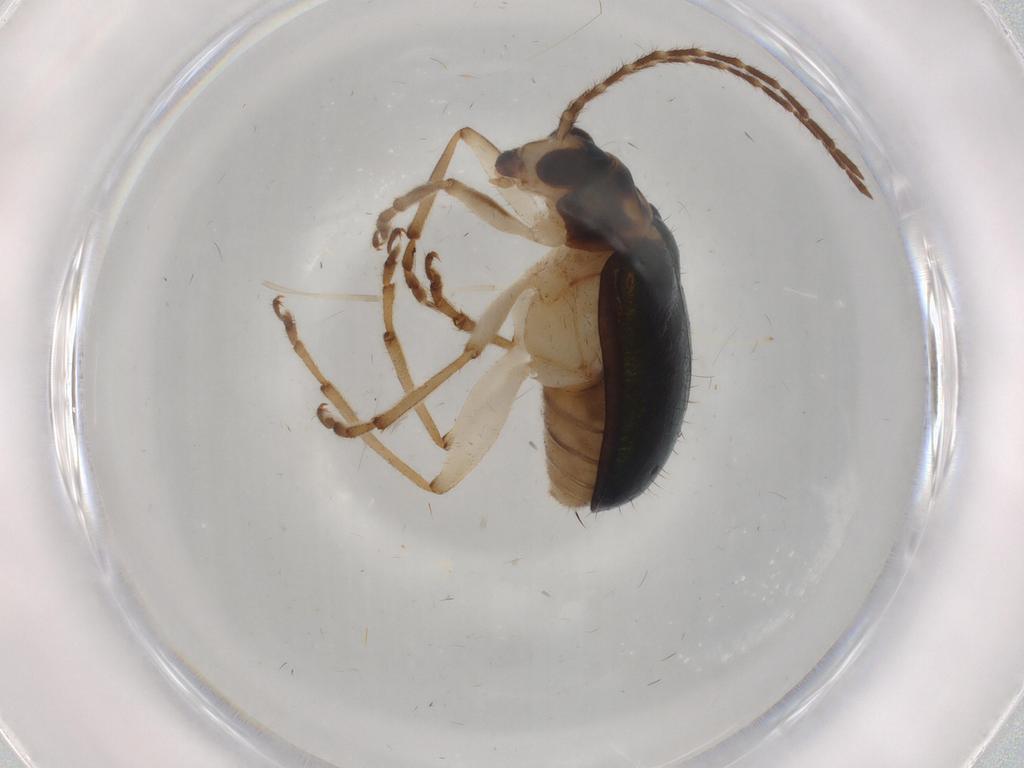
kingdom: Animalia
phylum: Arthropoda
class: Insecta
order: Coleoptera
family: Chrysomelidae
